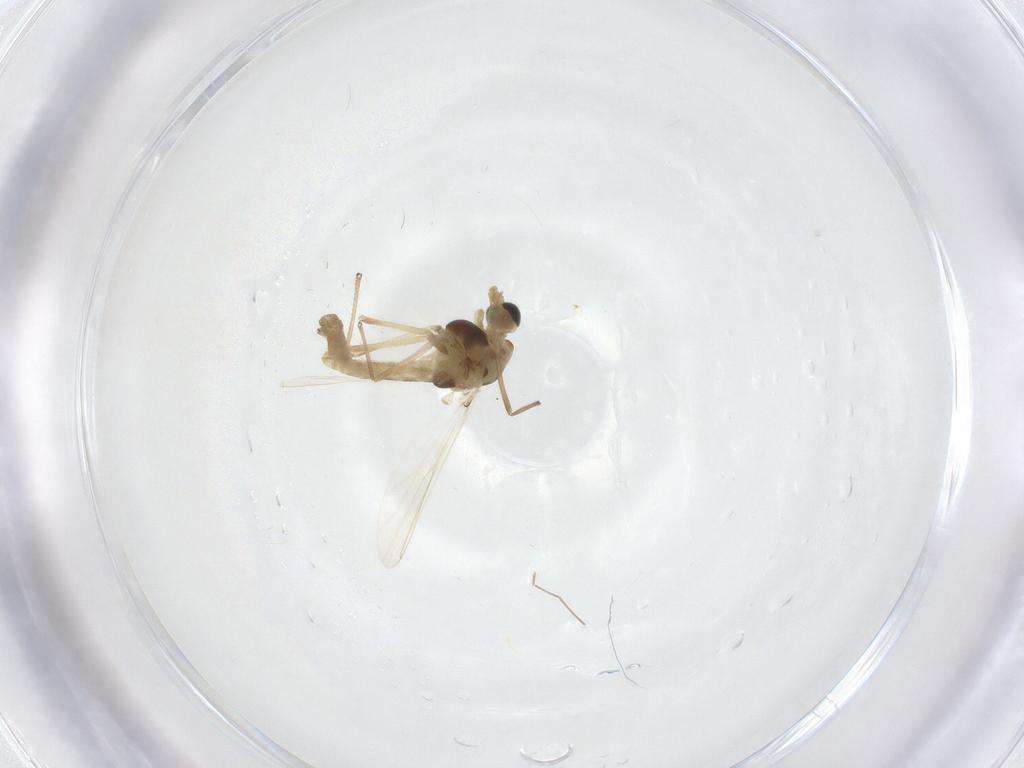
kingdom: Animalia
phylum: Arthropoda
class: Insecta
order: Diptera
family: Chironomidae
